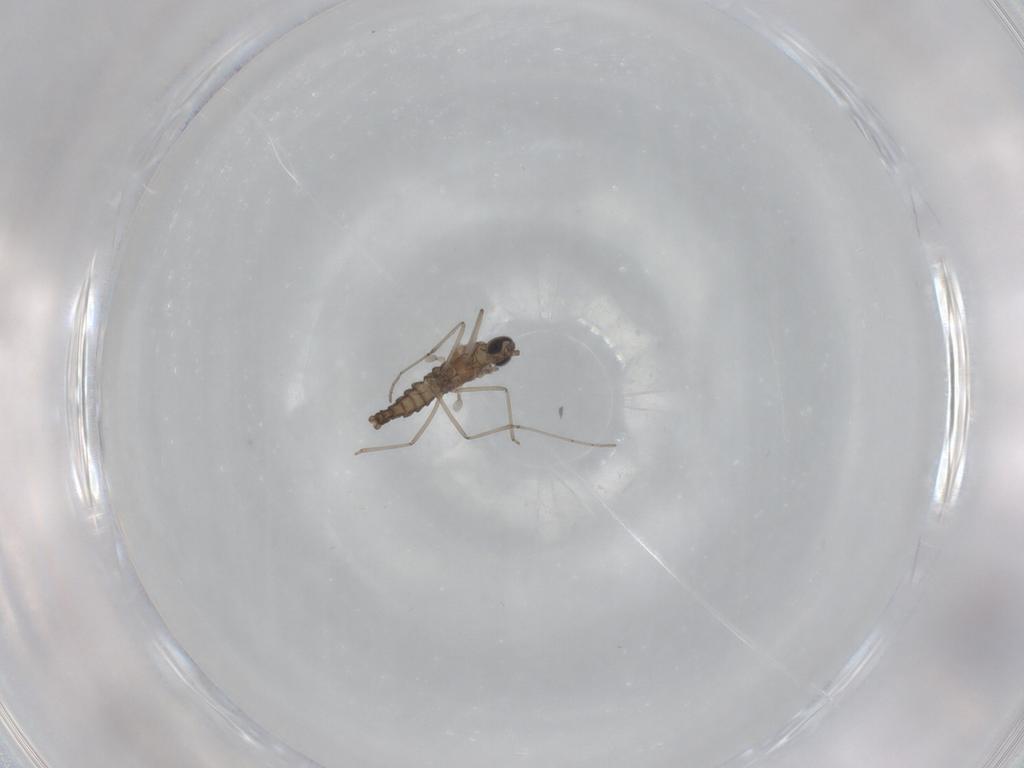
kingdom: Animalia
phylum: Arthropoda
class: Insecta
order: Diptera
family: Cecidomyiidae
